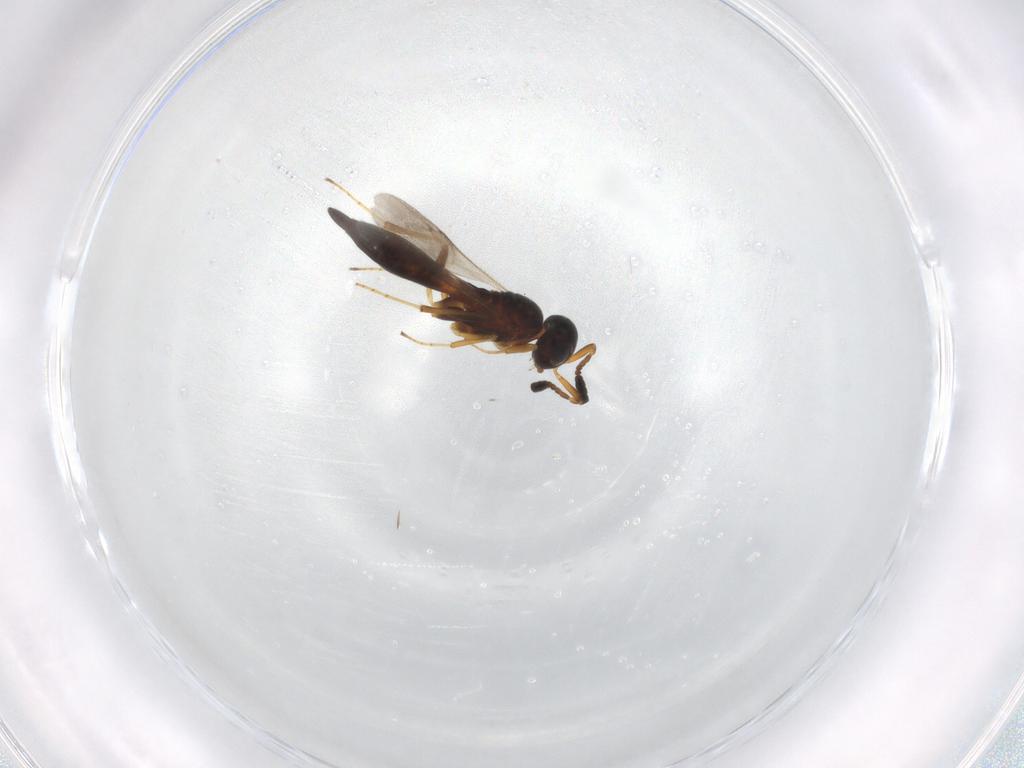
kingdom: Animalia
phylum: Arthropoda
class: Insecta
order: Hymenoptera
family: Scelionidae
